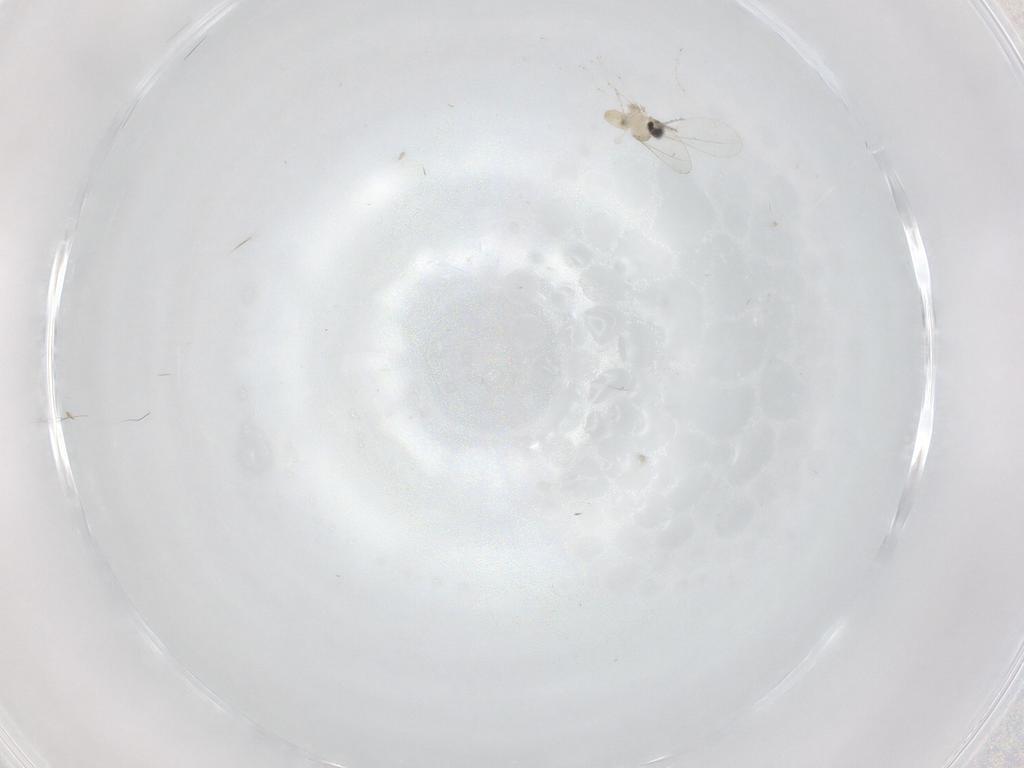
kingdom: Animalia
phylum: Arthropoda
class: Insecta
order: Diptera
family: Cecidomyiidae
